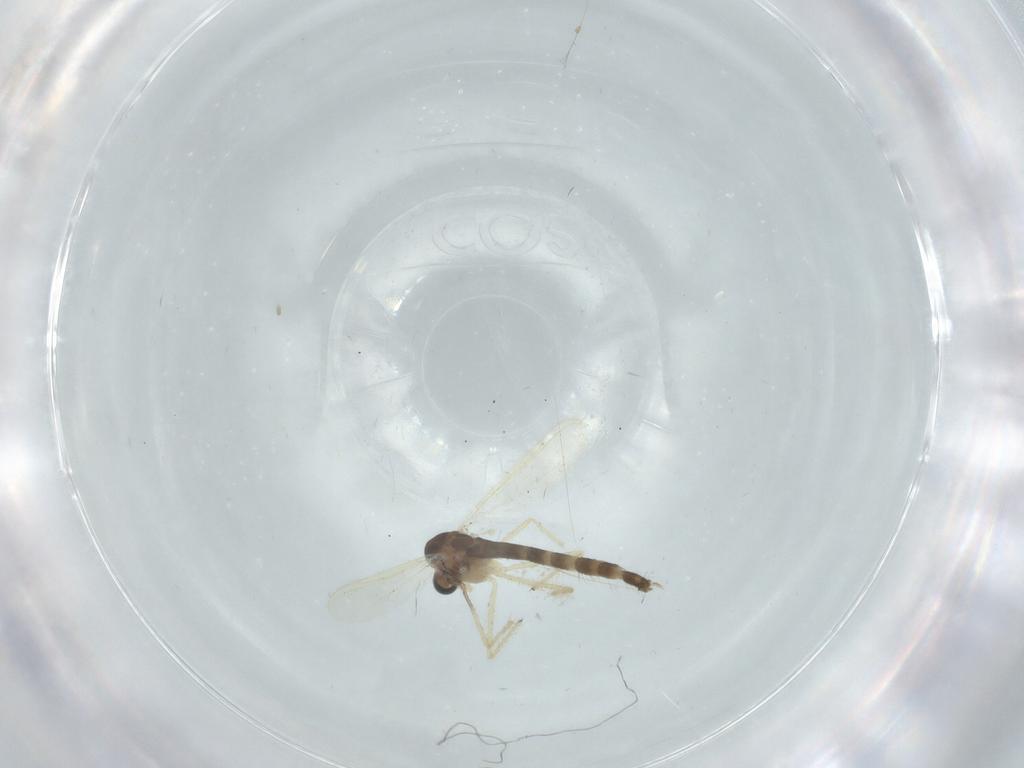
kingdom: Animalia
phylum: Arthropoda
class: Insecta
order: Diptera
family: Chironomidae
